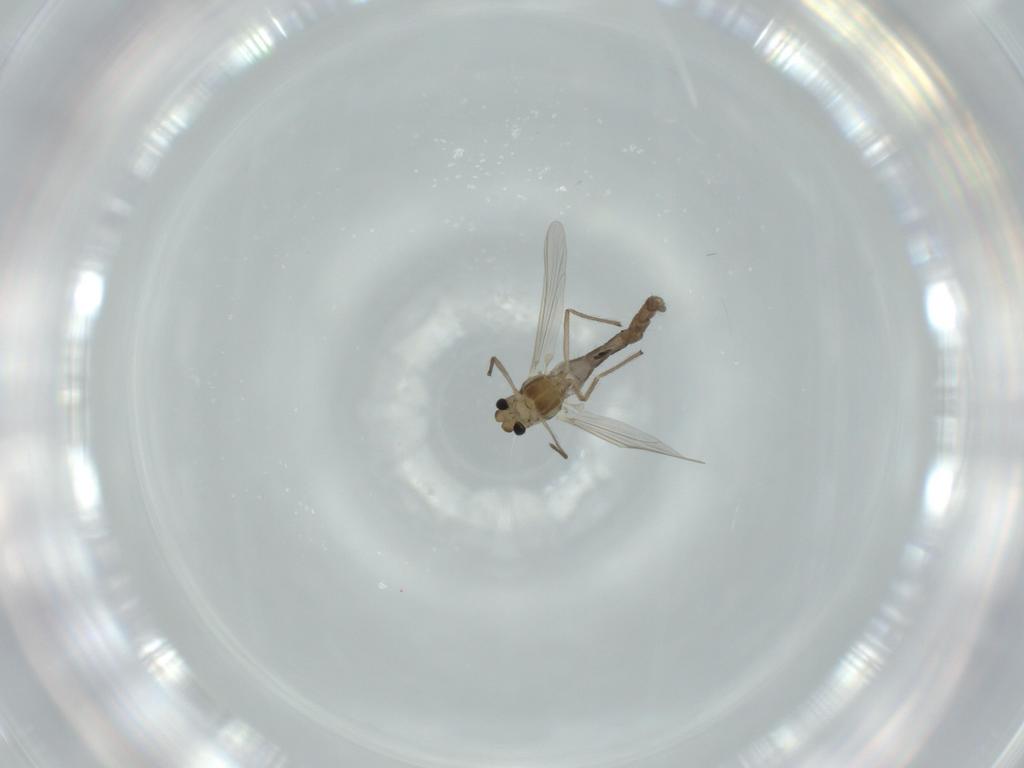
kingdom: Animalia
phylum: Arthropoda
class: Insecta
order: Diptera
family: Chironomidae
